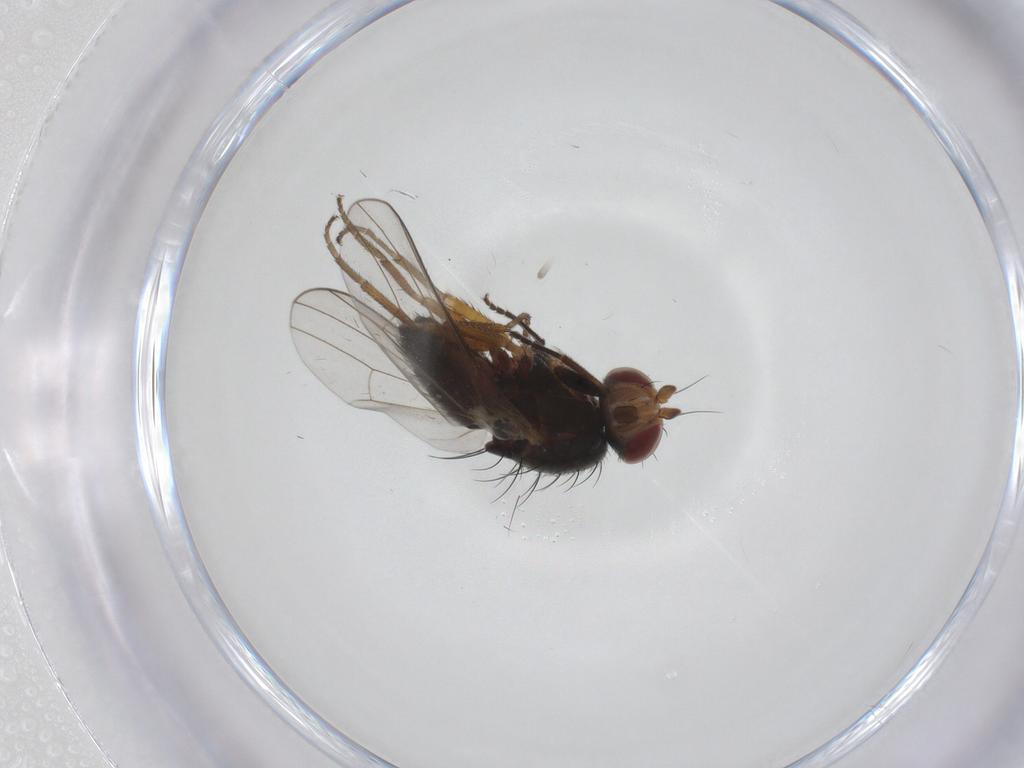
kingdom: Animalia
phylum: Arthropoda
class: Insecta
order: Diptera
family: Heleomyzidae
